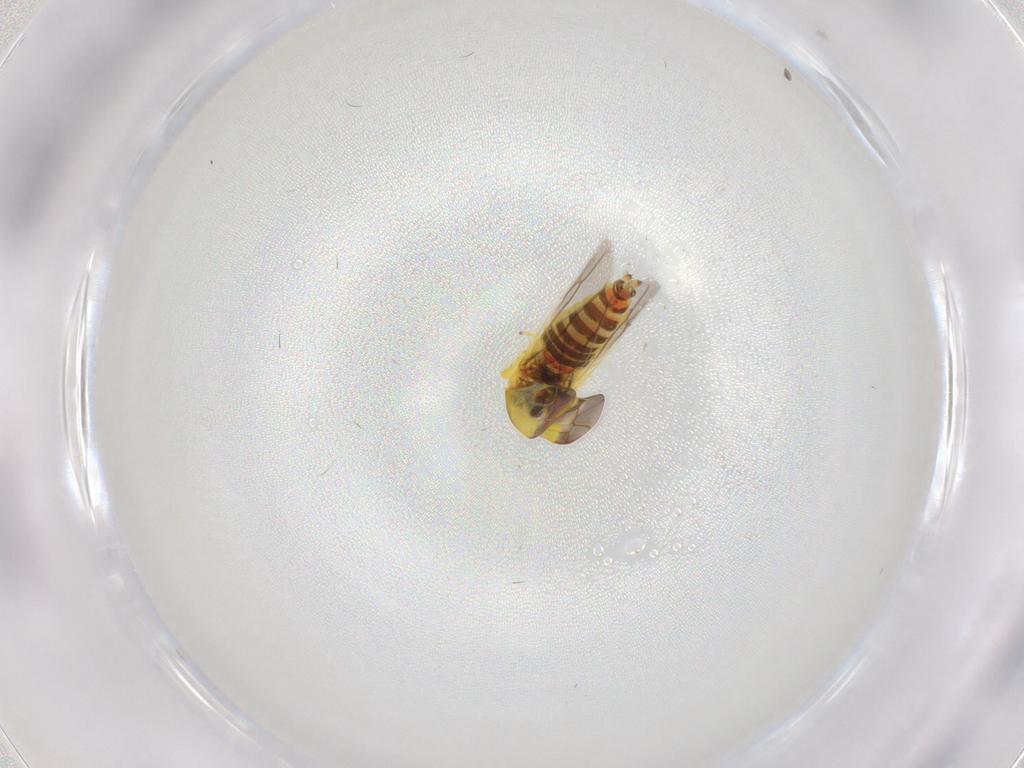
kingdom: Animalia
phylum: Arthropoda
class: Insecta
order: Hemiptera
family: Cicadellidae
